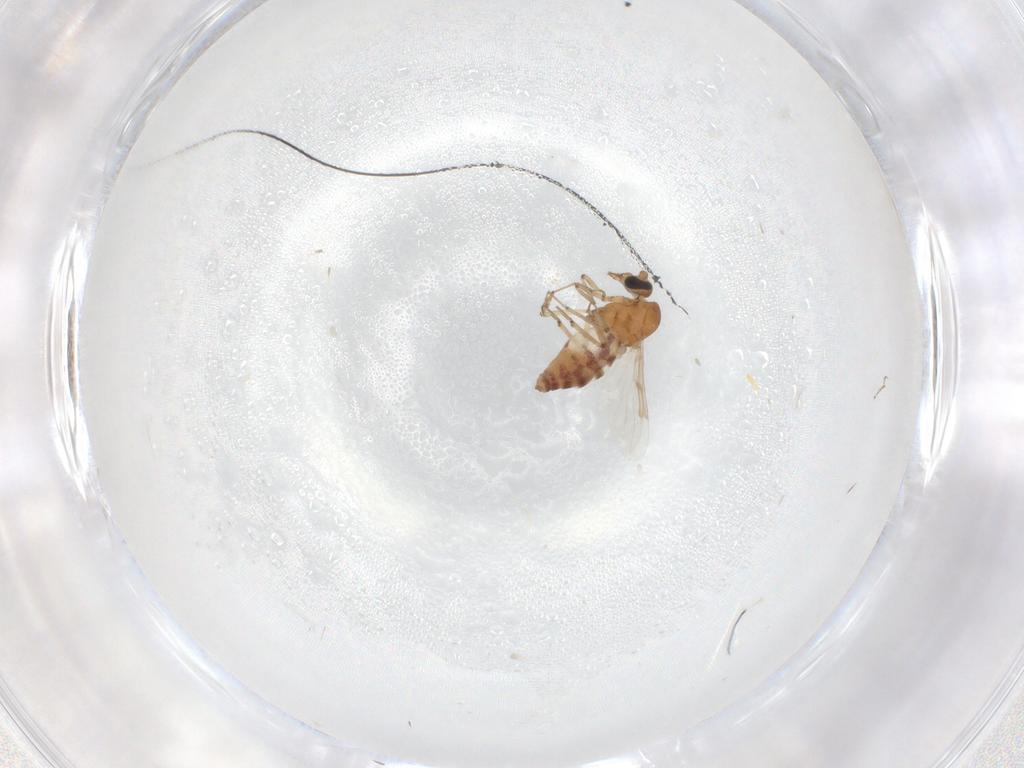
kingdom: Animalia
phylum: Arthropoda
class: Insecta
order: Diptera
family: Ceratopogonidae
